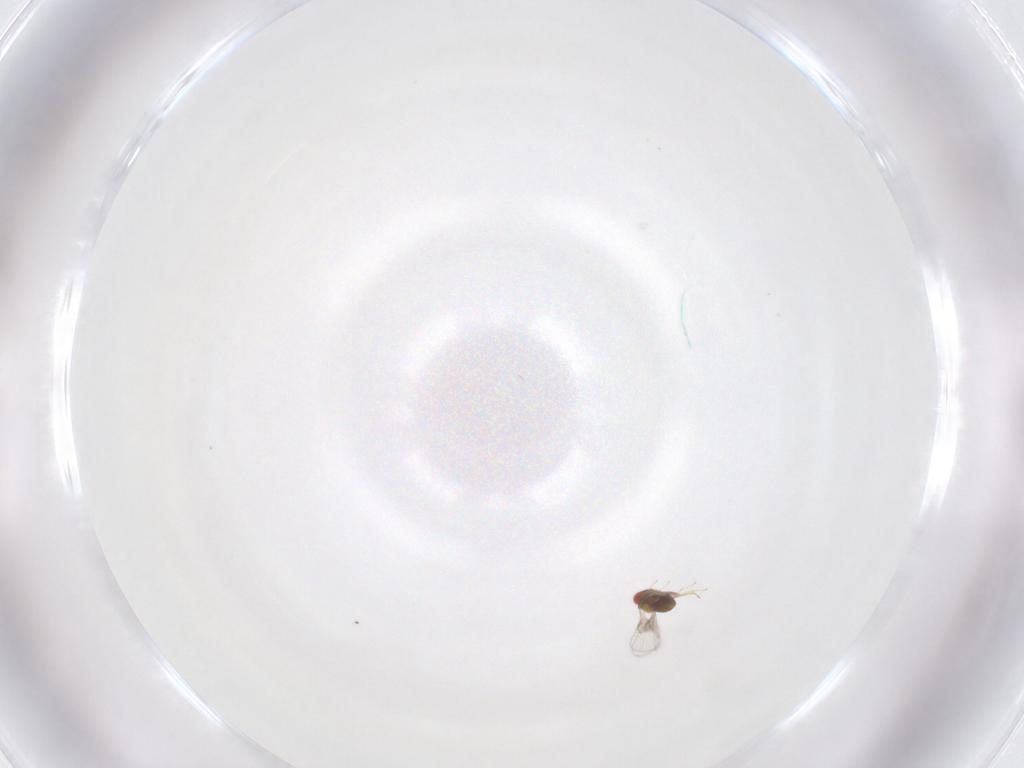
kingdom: Animalia
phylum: Arthropoda
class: Insecta
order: Hymenoptera
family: Trichogrammatidae
